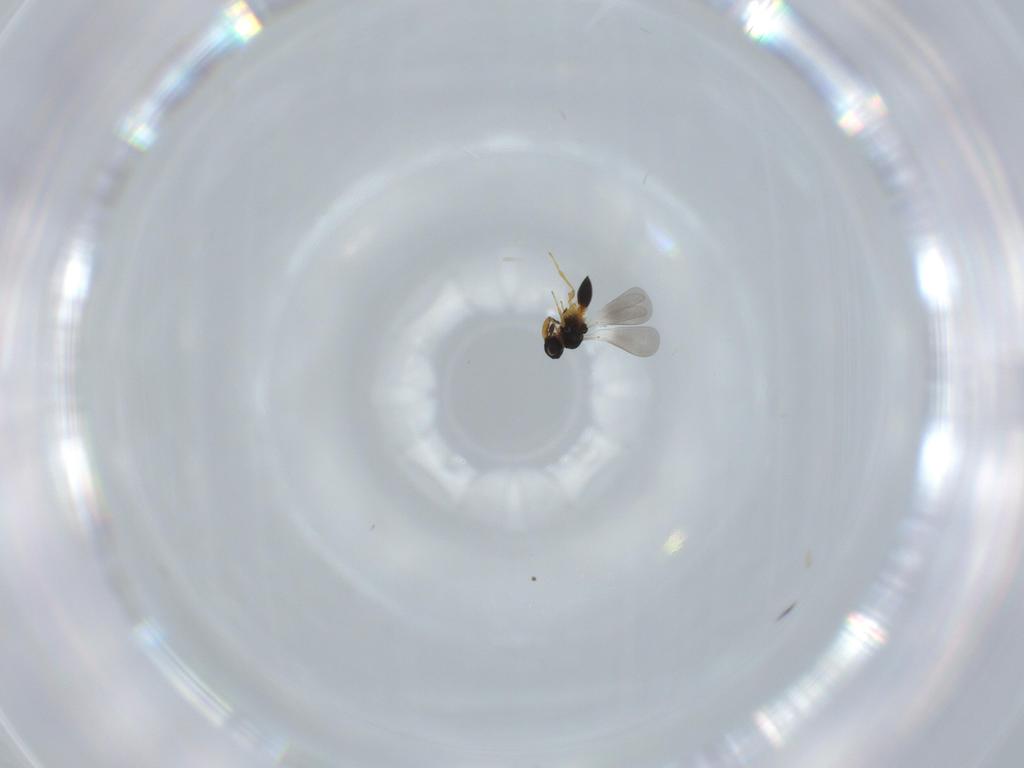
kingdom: Animalia
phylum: Arthropoda
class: Insecta
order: Hymenoptera
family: Platygastridae
